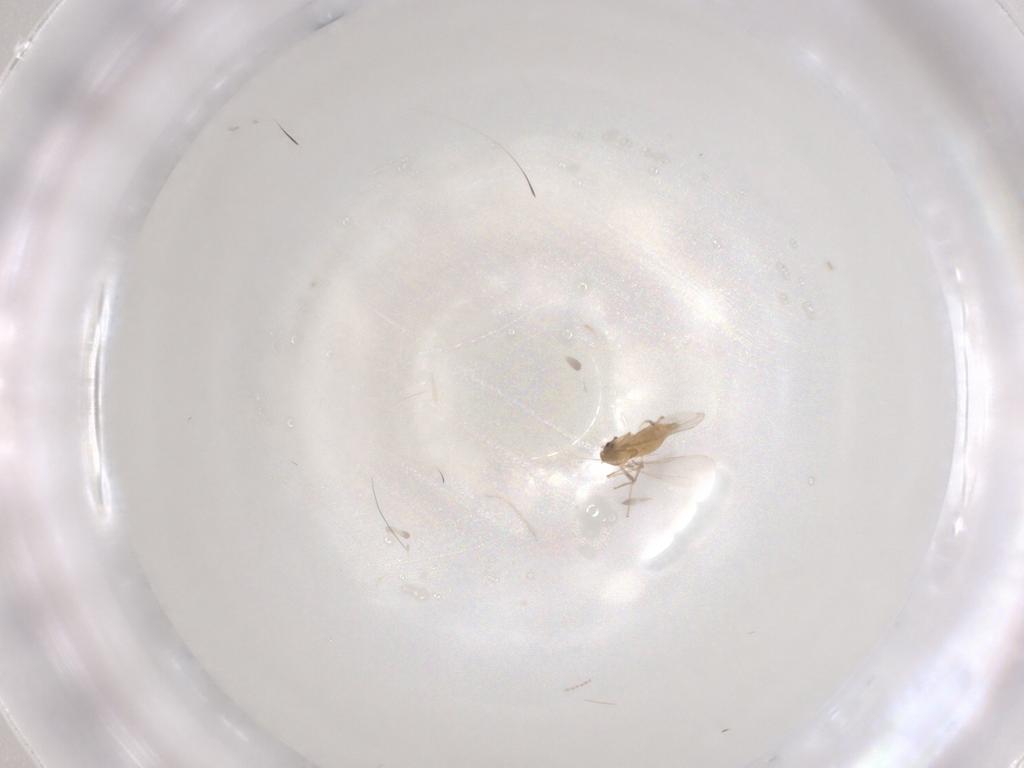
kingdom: Animalia
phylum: Arthropoda
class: Insecta
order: Diptera
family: Chironomidae
